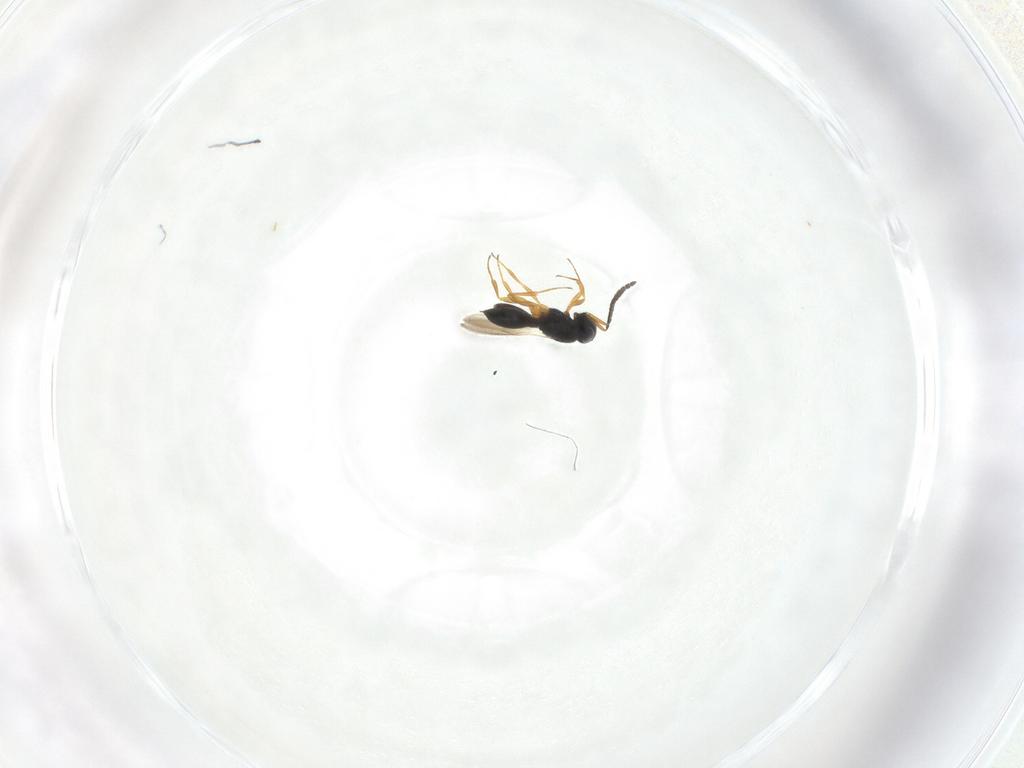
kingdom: Animalia
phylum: Arthropoda
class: Insecta
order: Hymenoptera
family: Scelionidae
